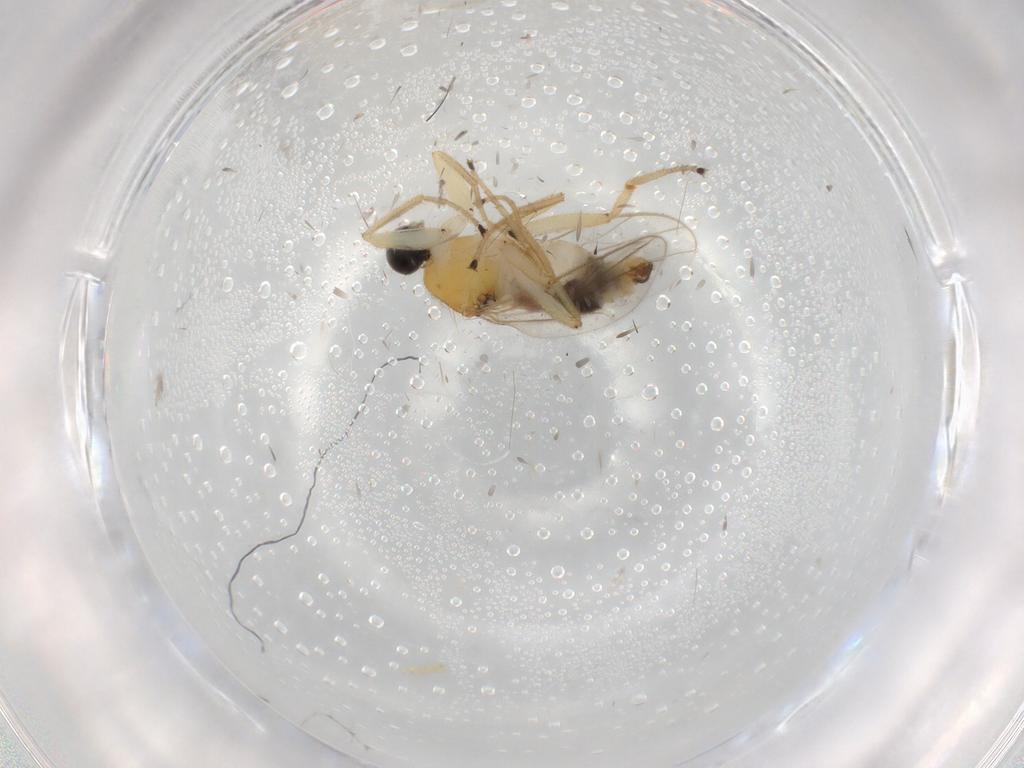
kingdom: Animalia
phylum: Arthropoda
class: Insecta
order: Diptera
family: Hybotidae
